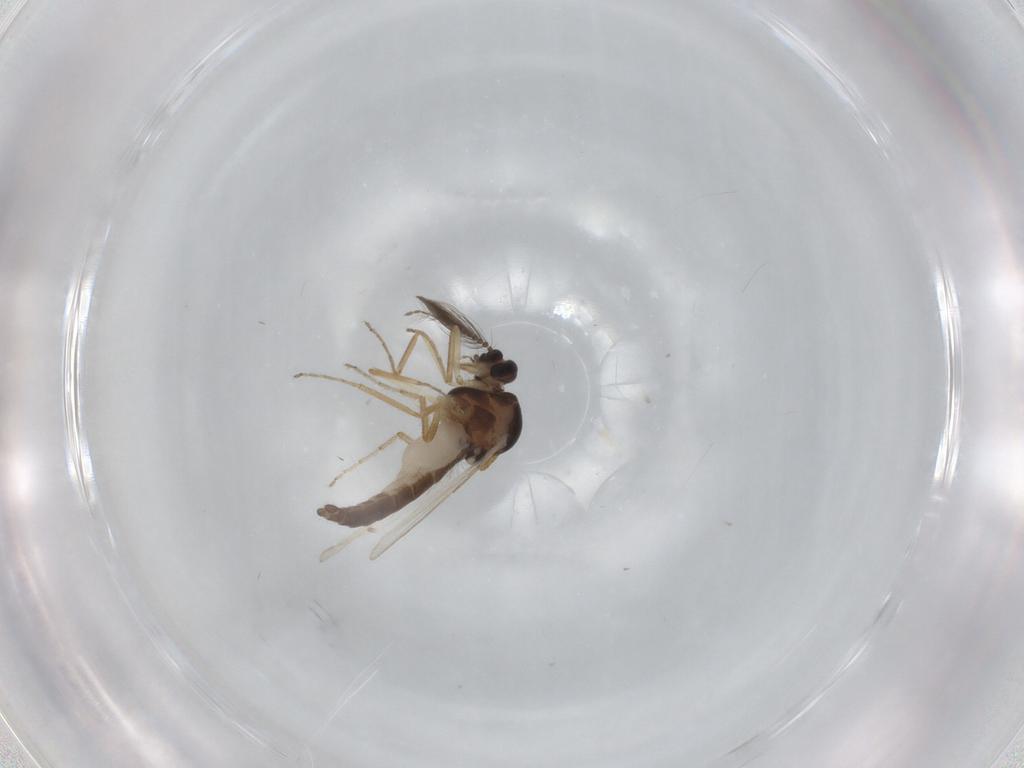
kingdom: Animalia
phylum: Arthropoda
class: Insecta
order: Diptera
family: Ceratopogonidae
